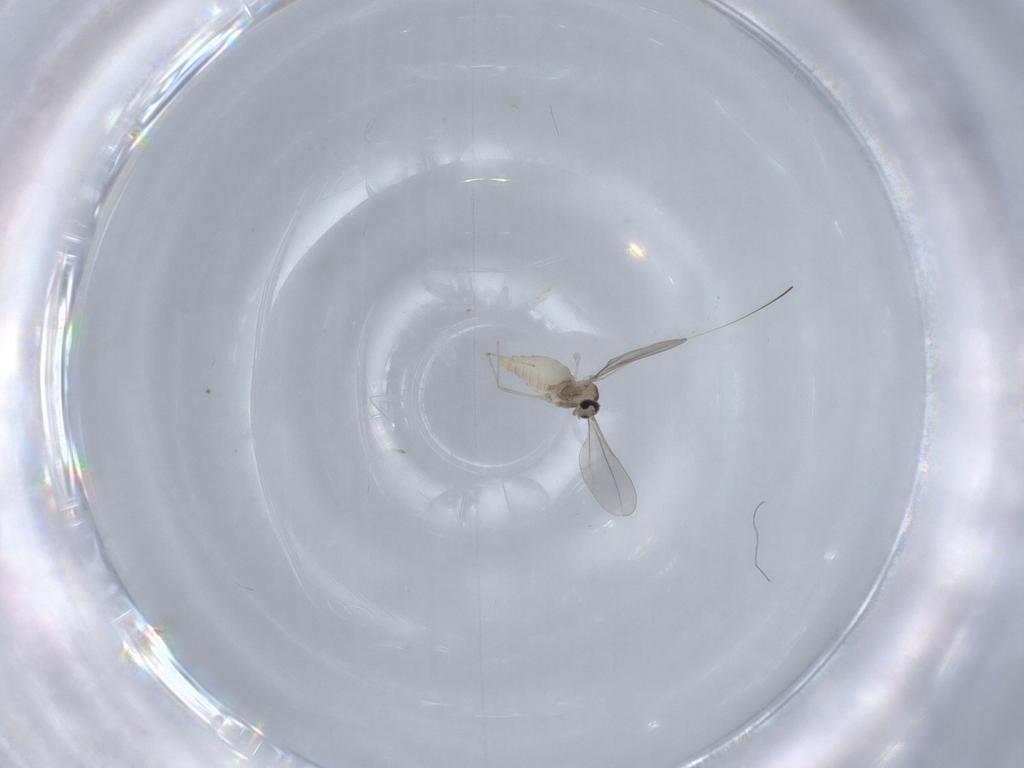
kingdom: Animalia
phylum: Arthropoda
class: Insecta
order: Diptera
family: Cecidomyiidae
